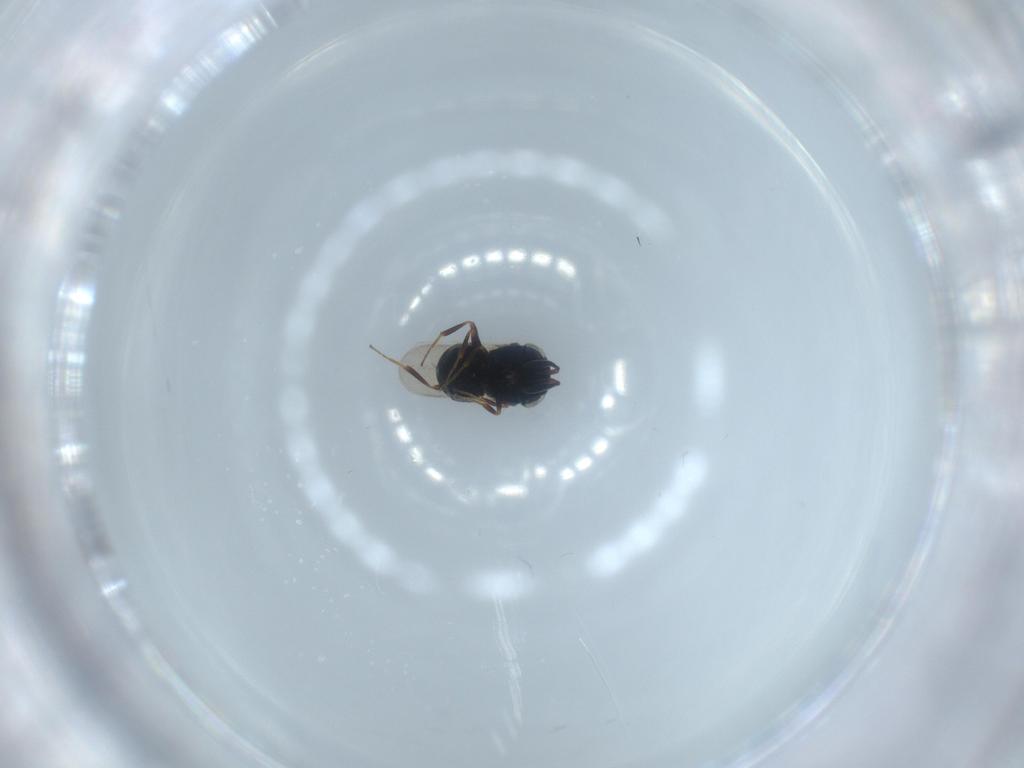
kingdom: Animalia
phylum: Arthropoda
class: Insecta
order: Hymenoptera
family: Scelionidae
